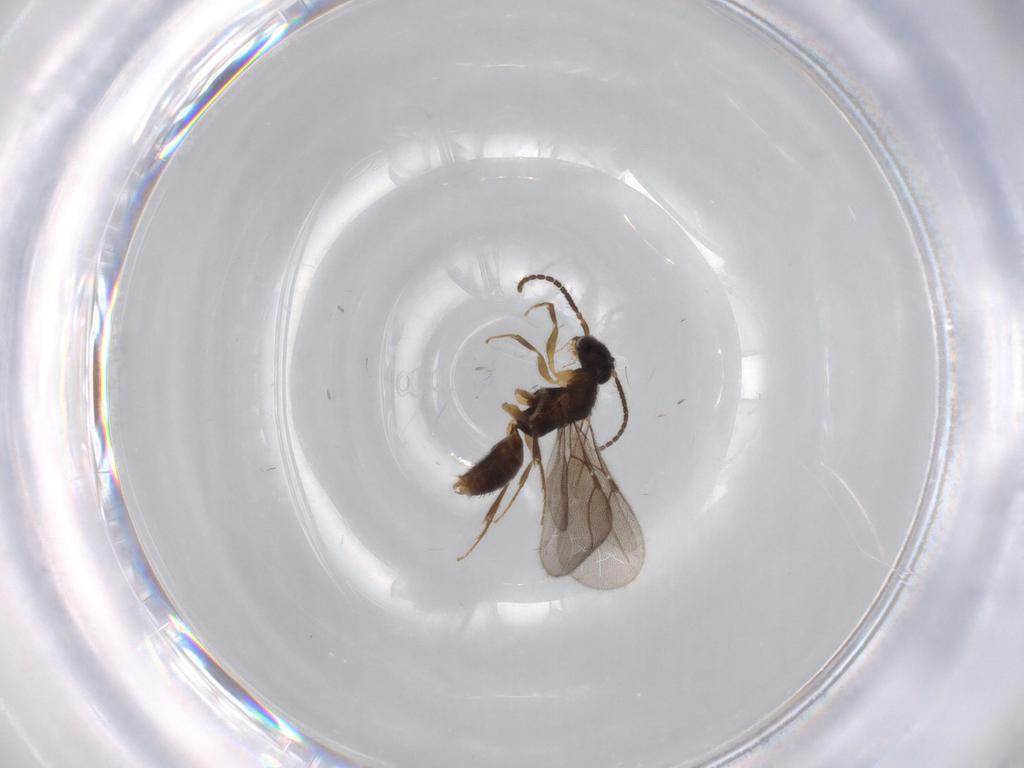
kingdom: Animalia
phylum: Arthropoda
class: Insecta
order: Hymenoptera
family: Bethylidae
